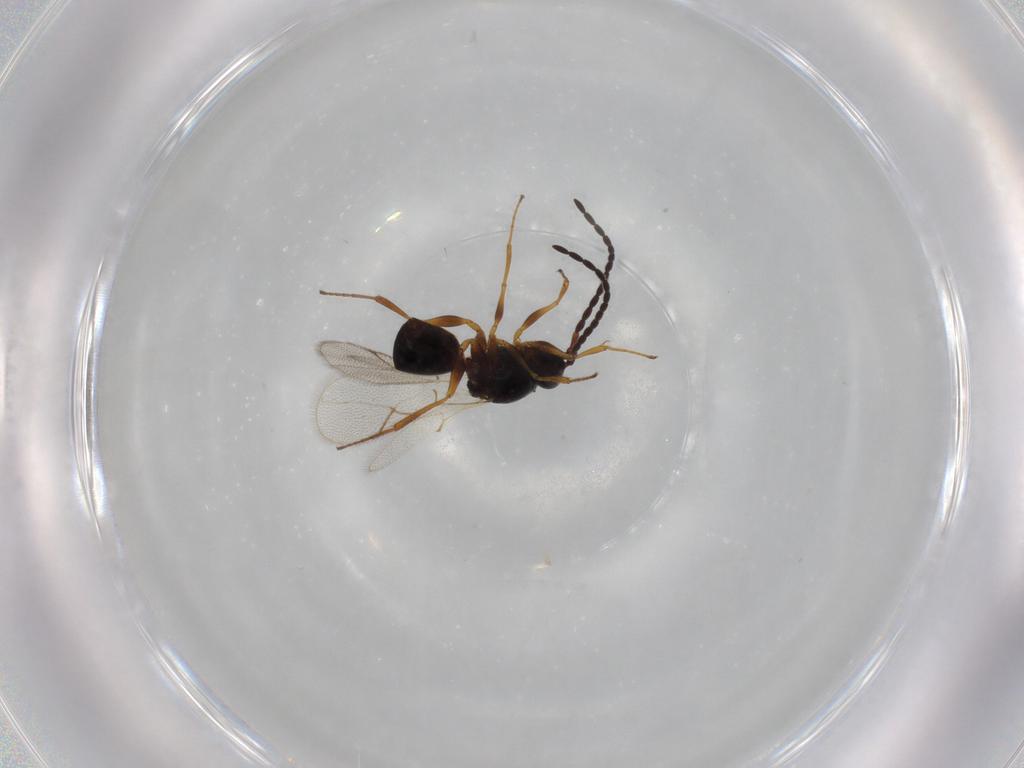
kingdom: Animalia
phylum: Arthropoda
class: Insecta
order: Hymenoptera
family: Figitidae
